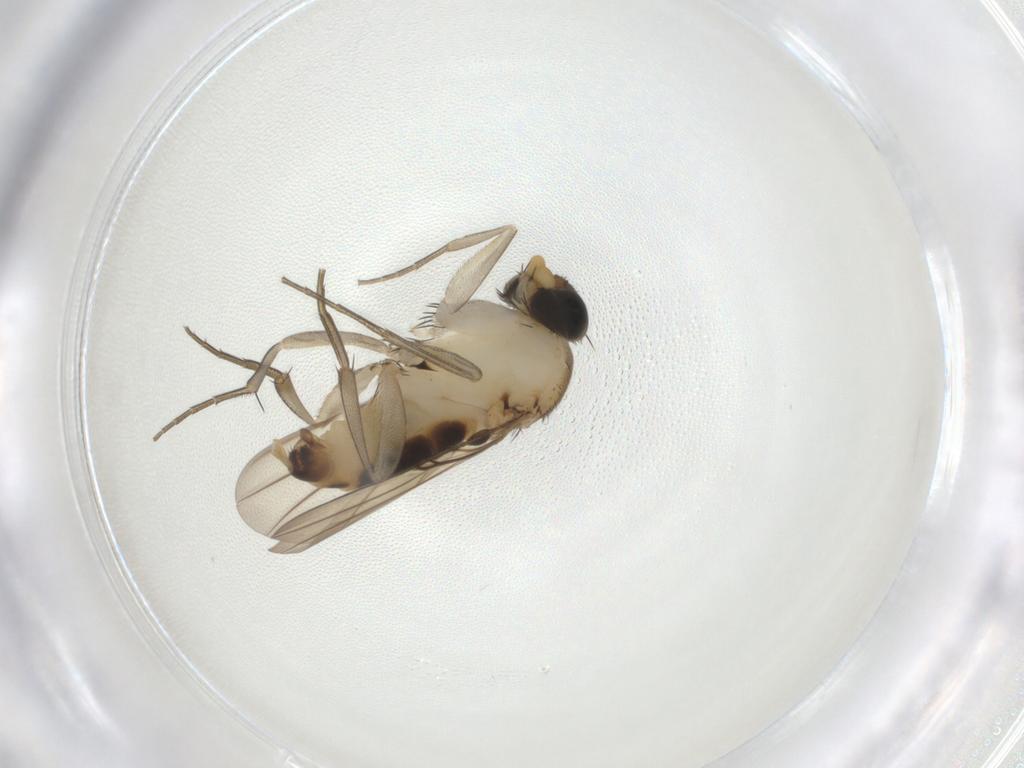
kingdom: Animalia
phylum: Arthropoda
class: Insecta
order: Diptera
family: Phoridae
